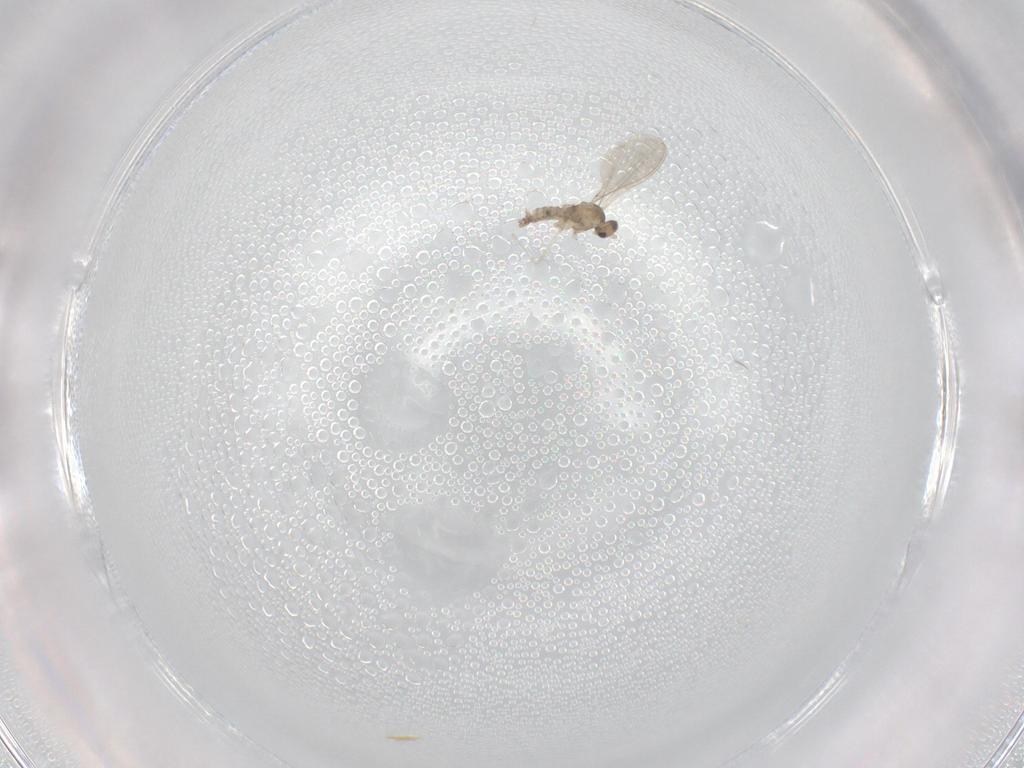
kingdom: Animalia
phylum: Arthropoda
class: Insecta
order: Diptera
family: Cecidomyiidae
